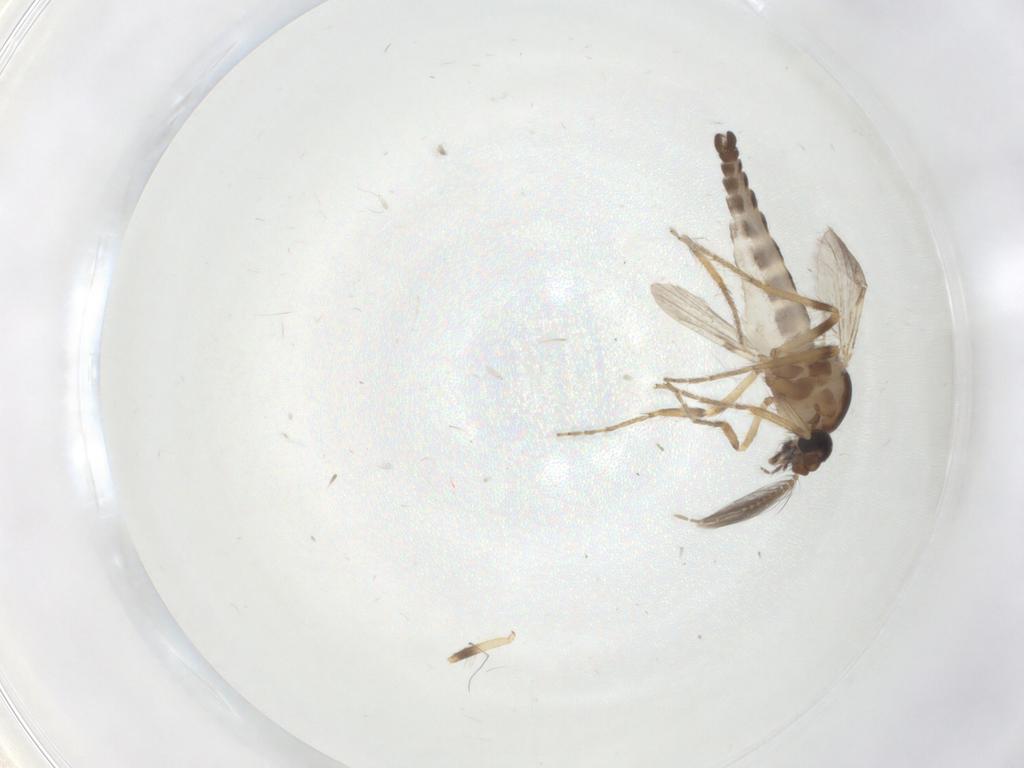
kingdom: Animalia
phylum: Arthropoda
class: Insecta
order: Diptera
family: Ceratopogonidae
